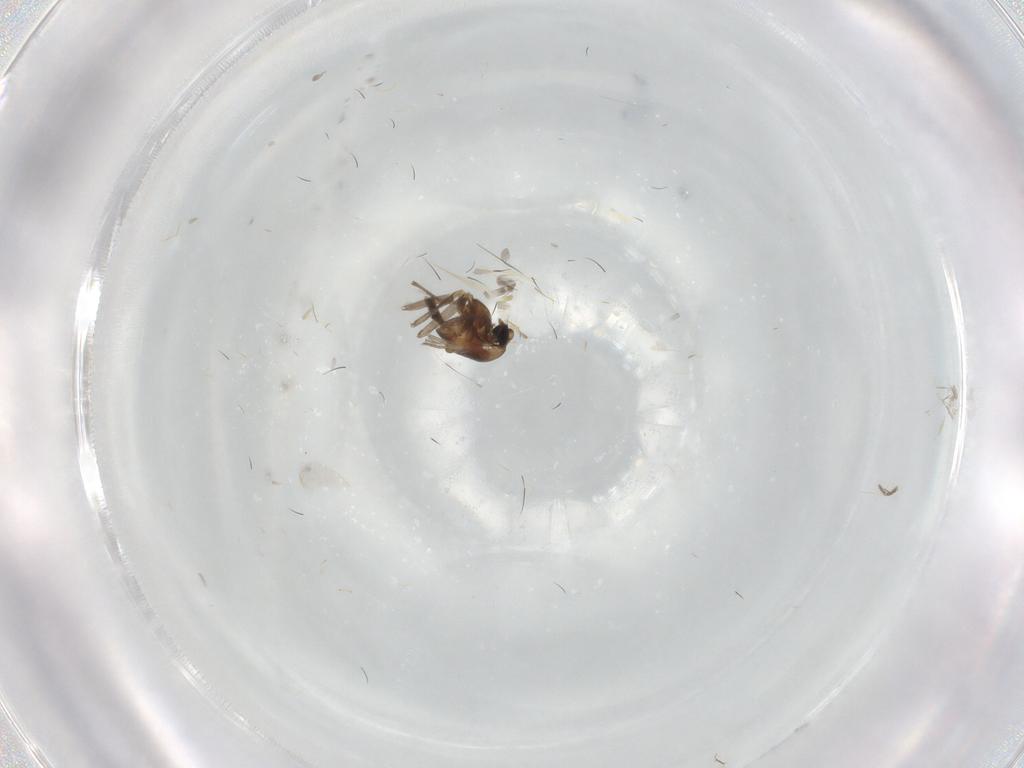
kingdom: Animalia
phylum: Arthropoda
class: Insecta
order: Diptera
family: Chironomidae
